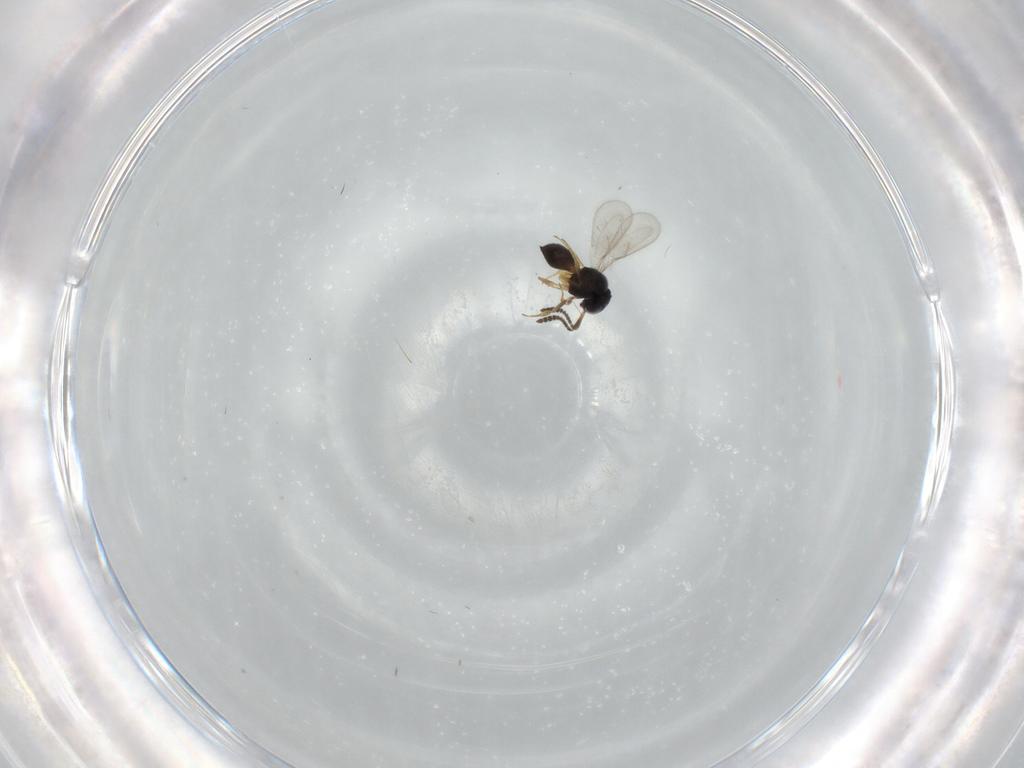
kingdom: Animalia
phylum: Arthropoda
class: Insecta
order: Hymenoptera
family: Scelionidae
